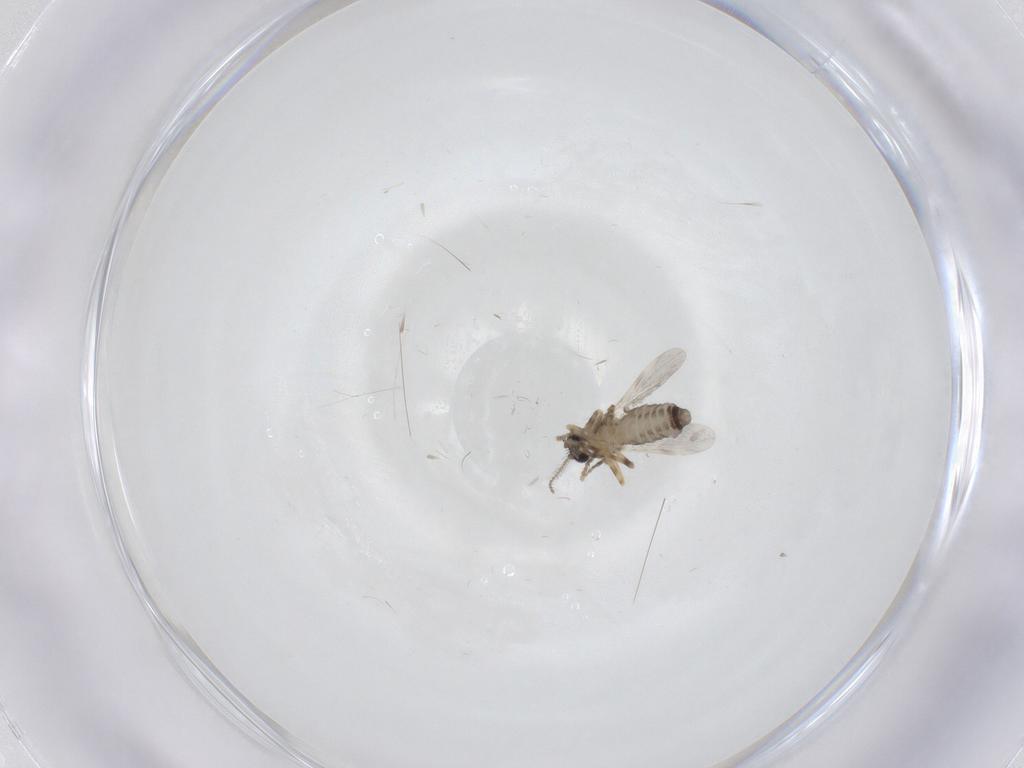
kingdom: Animalia
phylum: Arthropoda
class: Insecta
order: Diptera
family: Ceratopogonidae
